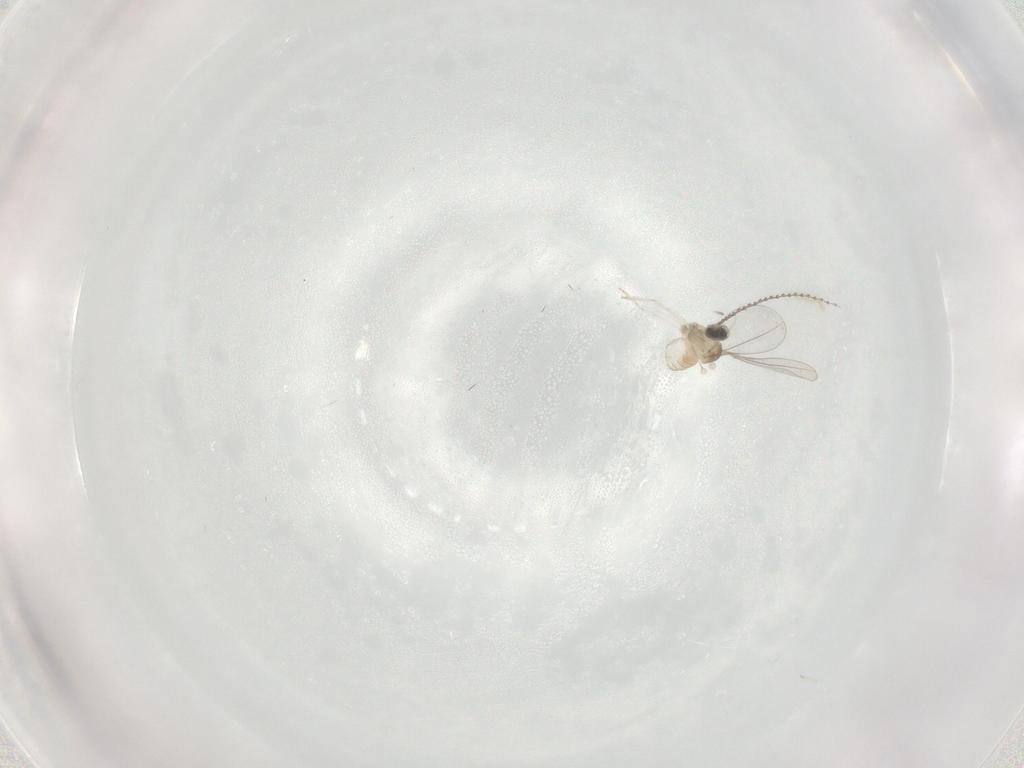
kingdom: Animalia
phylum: Arthropoda
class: Insecta
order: Diptera
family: Cecidomyiidae
